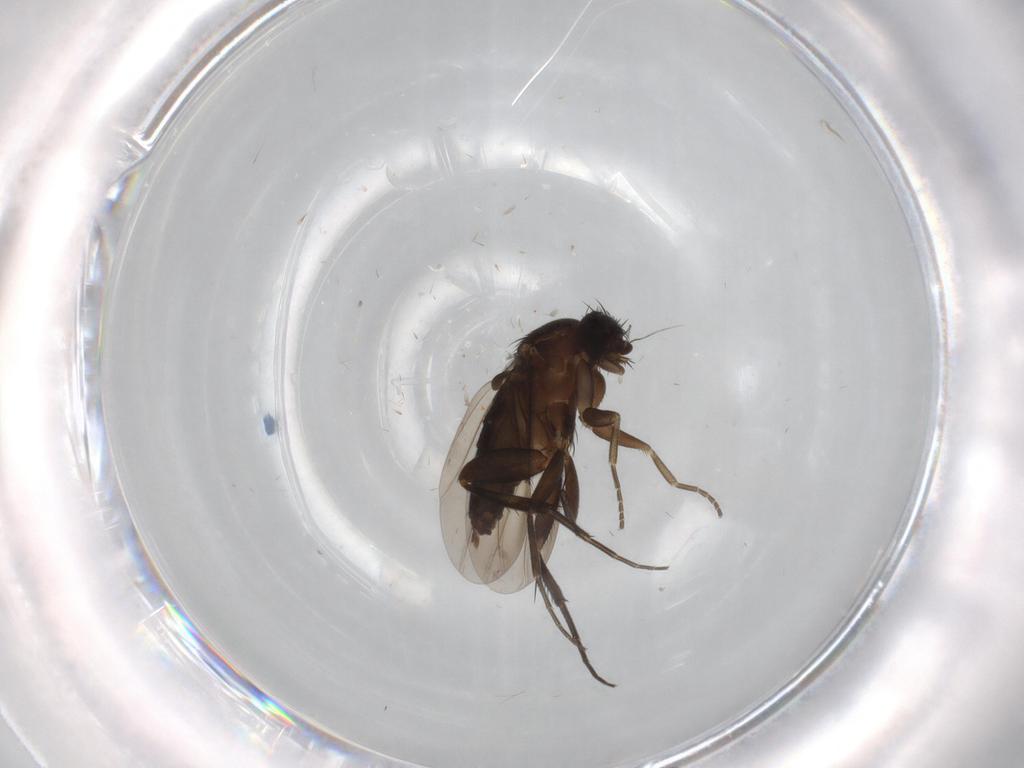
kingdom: Animalia
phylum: Arthropoda
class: Insecta
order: Diptera
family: Phoridae
